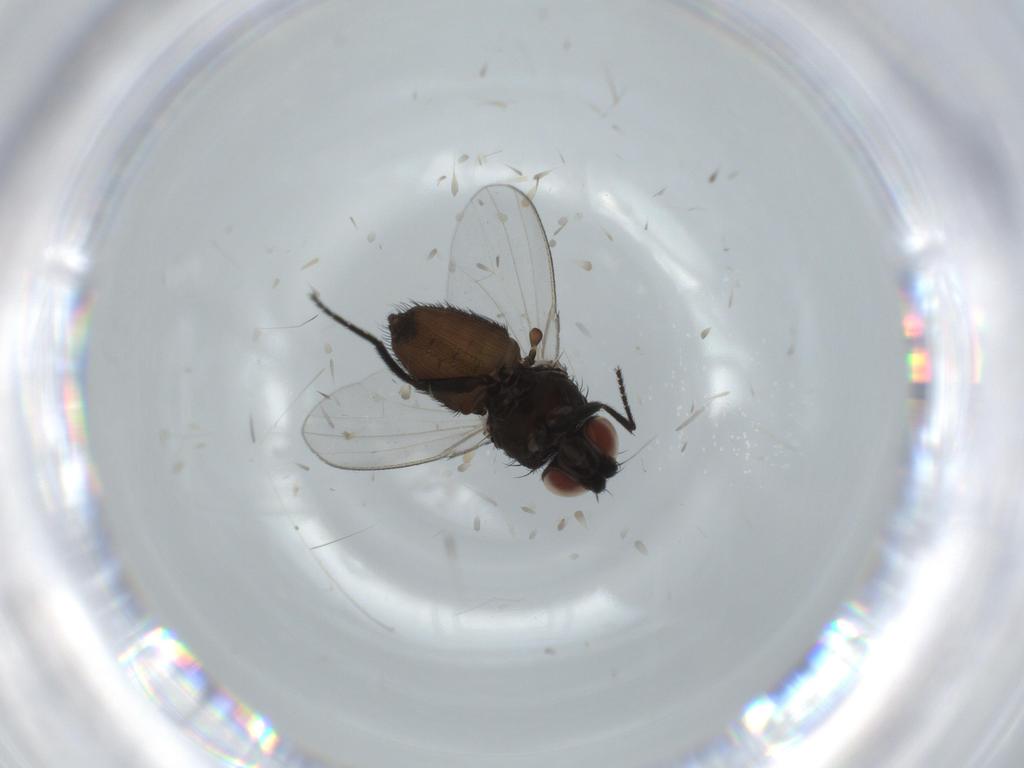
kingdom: Animalia
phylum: Arthropoda
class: Insecta
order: Diptera
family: Milichiidae
